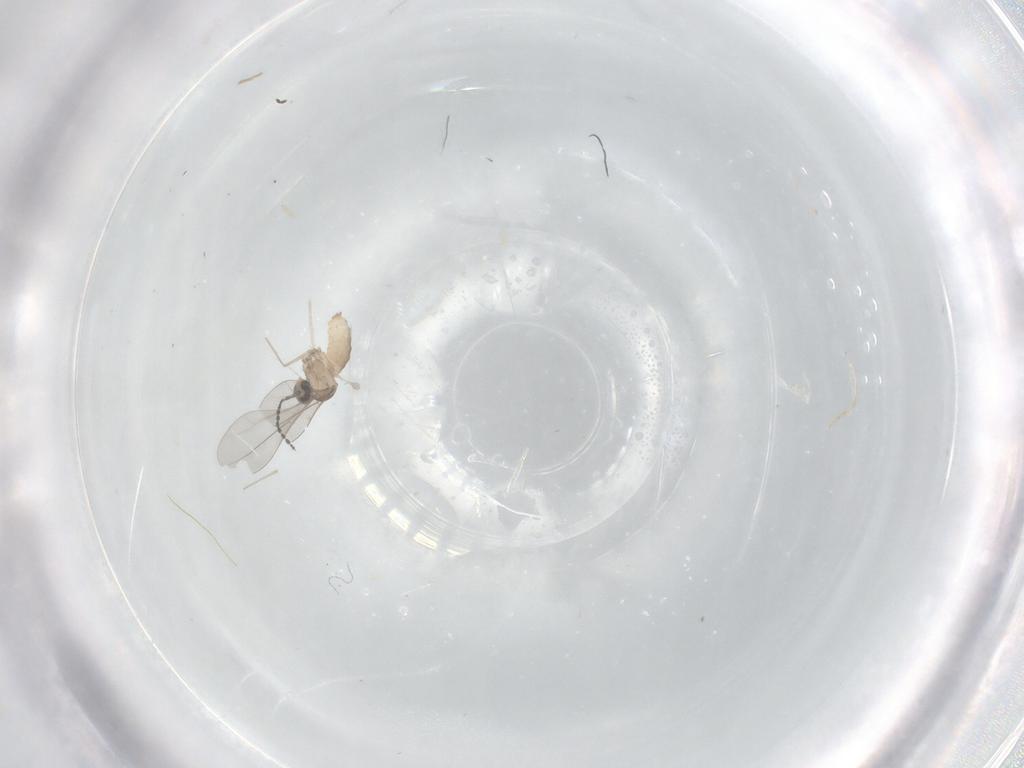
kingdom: Animalia
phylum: Arthropoda
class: Insecta
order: Diptera
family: Cecidomyiidae
